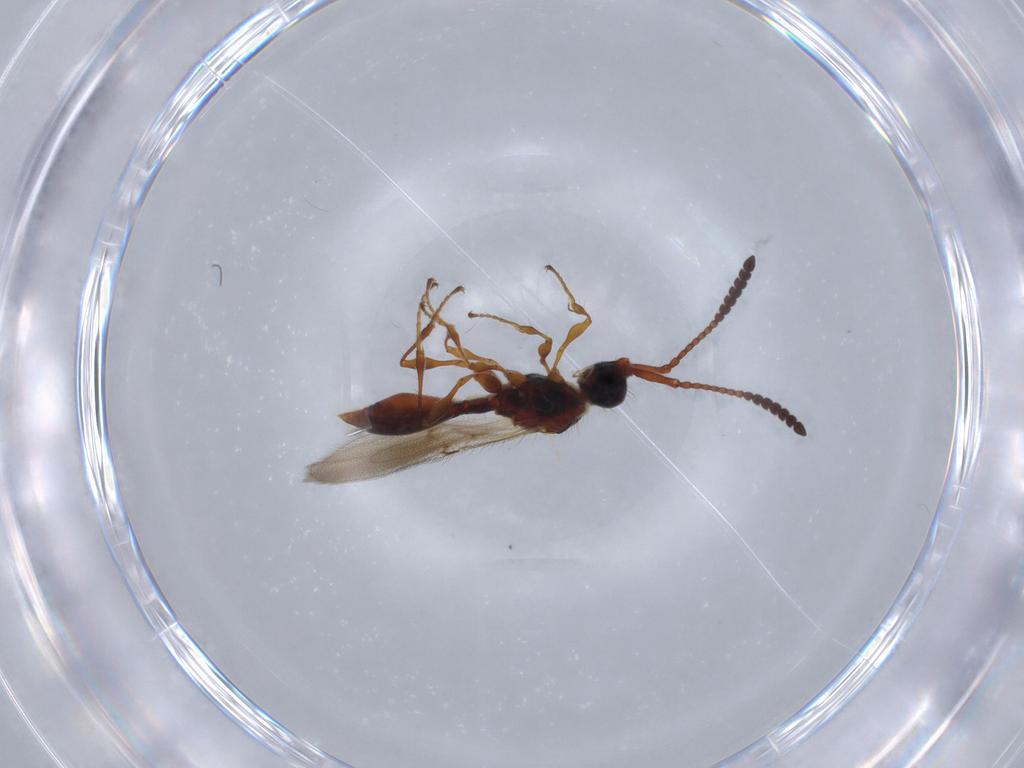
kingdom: Animalia
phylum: Arthropoda
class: Insecta
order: Hymenoptera
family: Diapriidae
